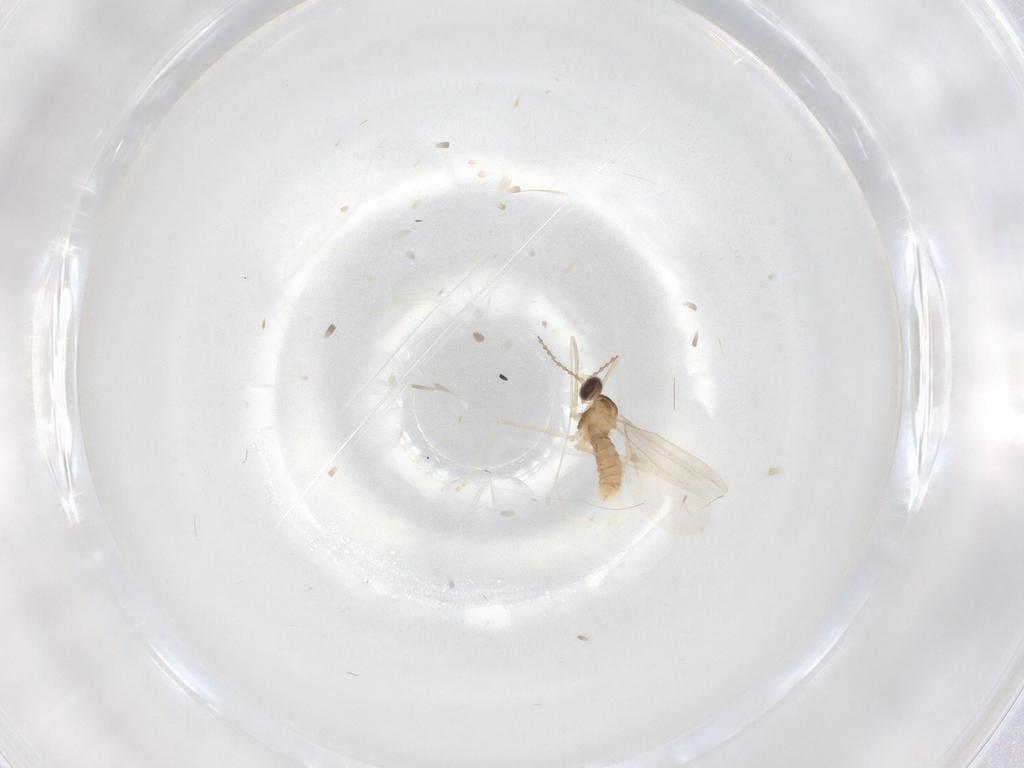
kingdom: Animalia
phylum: Arthropoda
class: Insecta
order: Diptera
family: Cecidomyiidae
